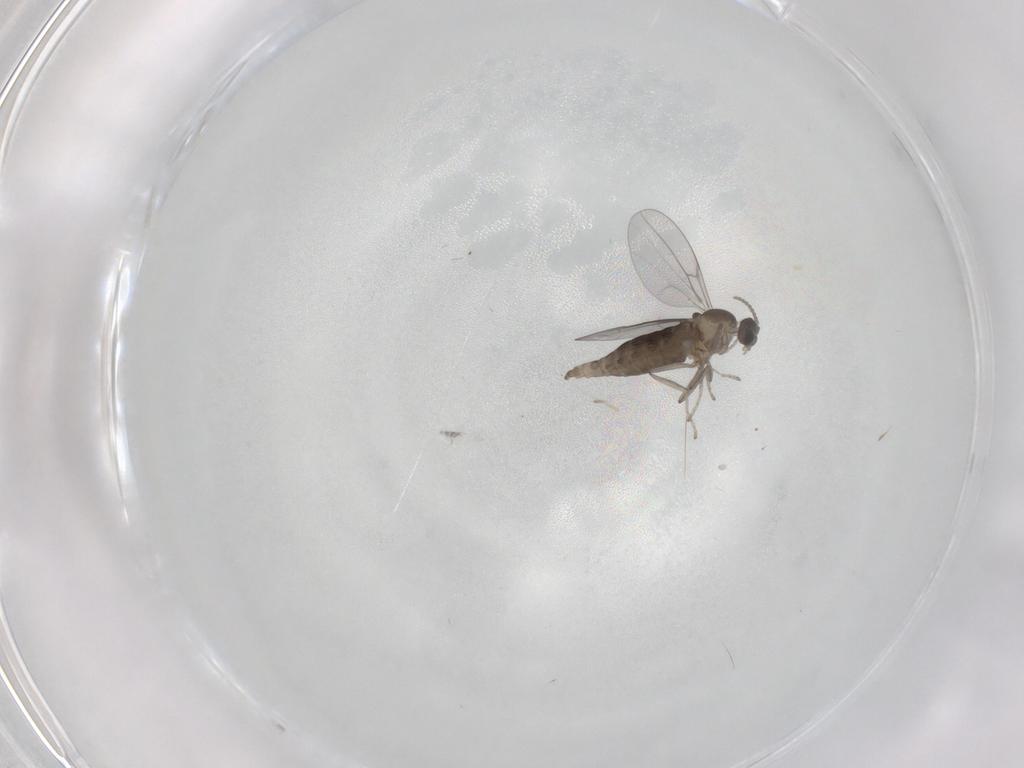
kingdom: Animalia
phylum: Arthropoda
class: Insecta
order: Diptera
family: Cecidomyiidae
